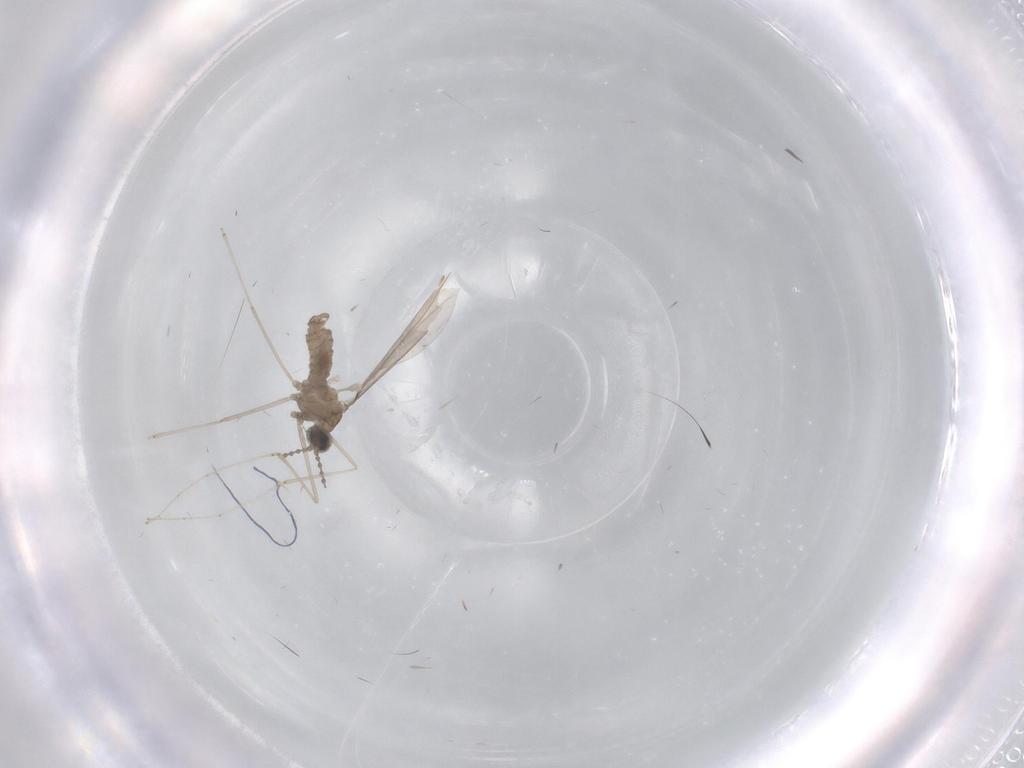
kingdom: Animalia
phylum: Arthropoda
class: Insecta
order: Diptera
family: Cecidomyiidae
